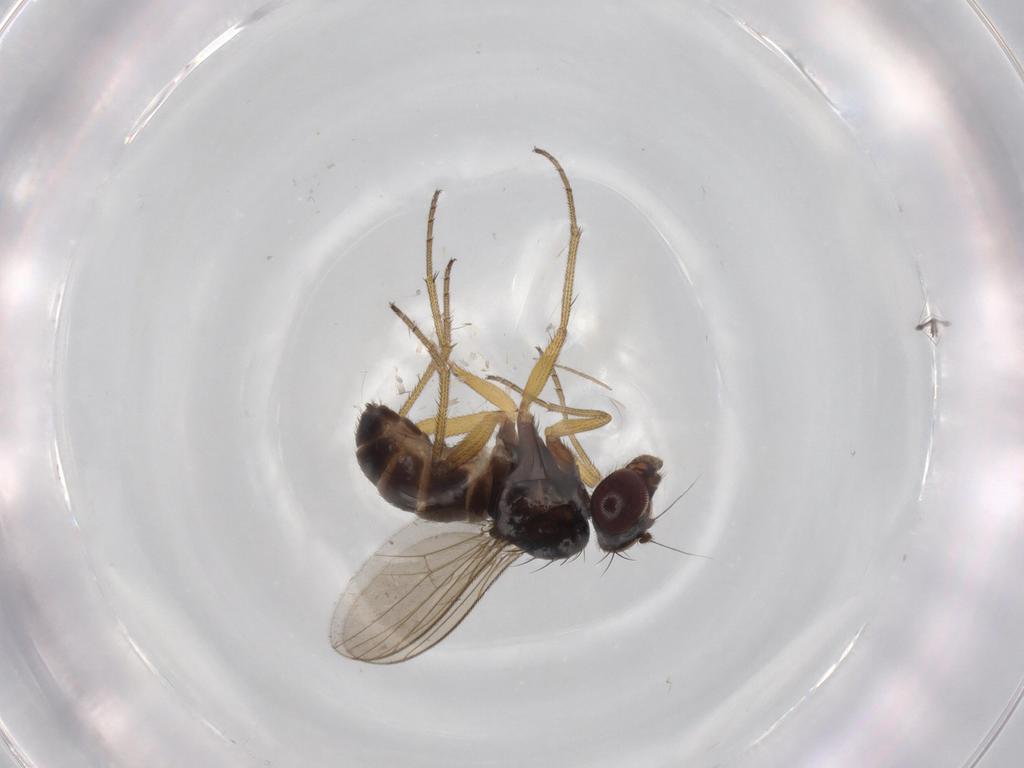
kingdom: Animalia
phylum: Arthropoda
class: Insecta
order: Diptera
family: Dolichopodidae
